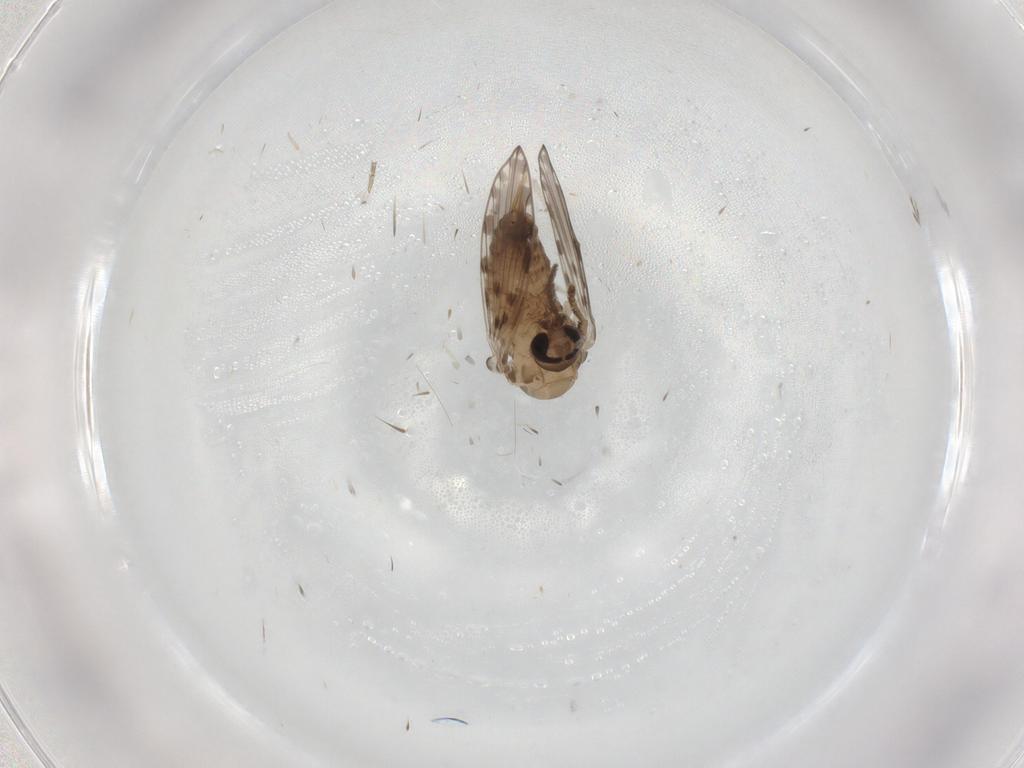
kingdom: Animalia
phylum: Arthropoda
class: Insecta
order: Diptera
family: Psychodidae
